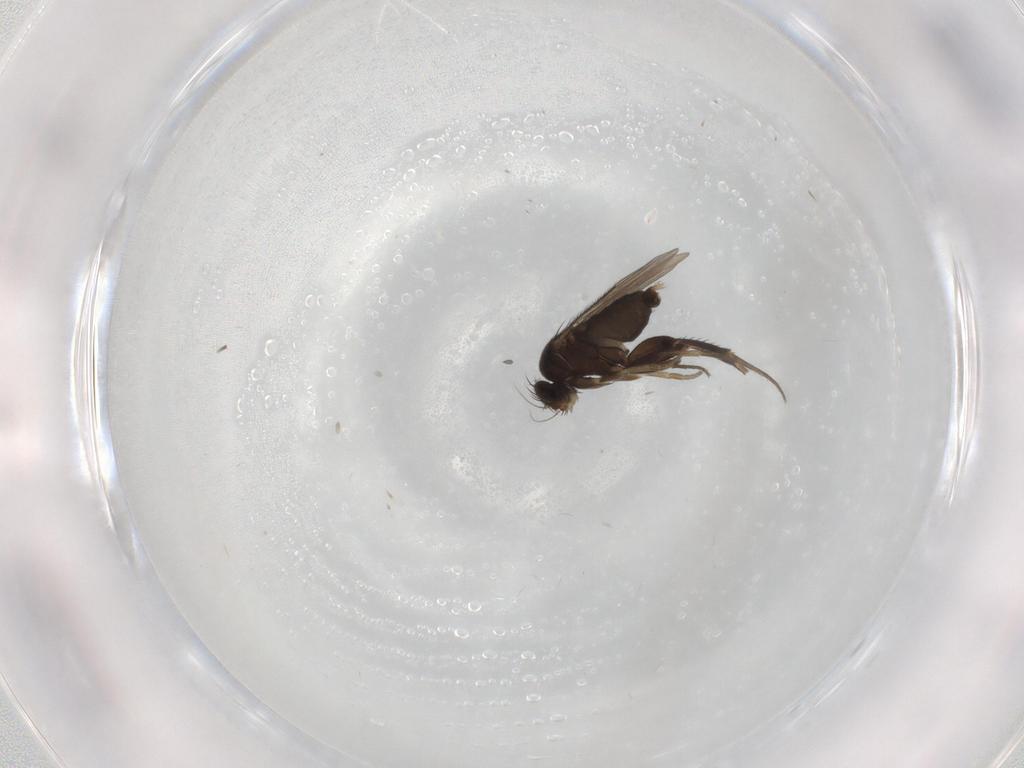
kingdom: Animalia
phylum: Arthropoda
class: Insecta
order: Diptera
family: Phoridae
